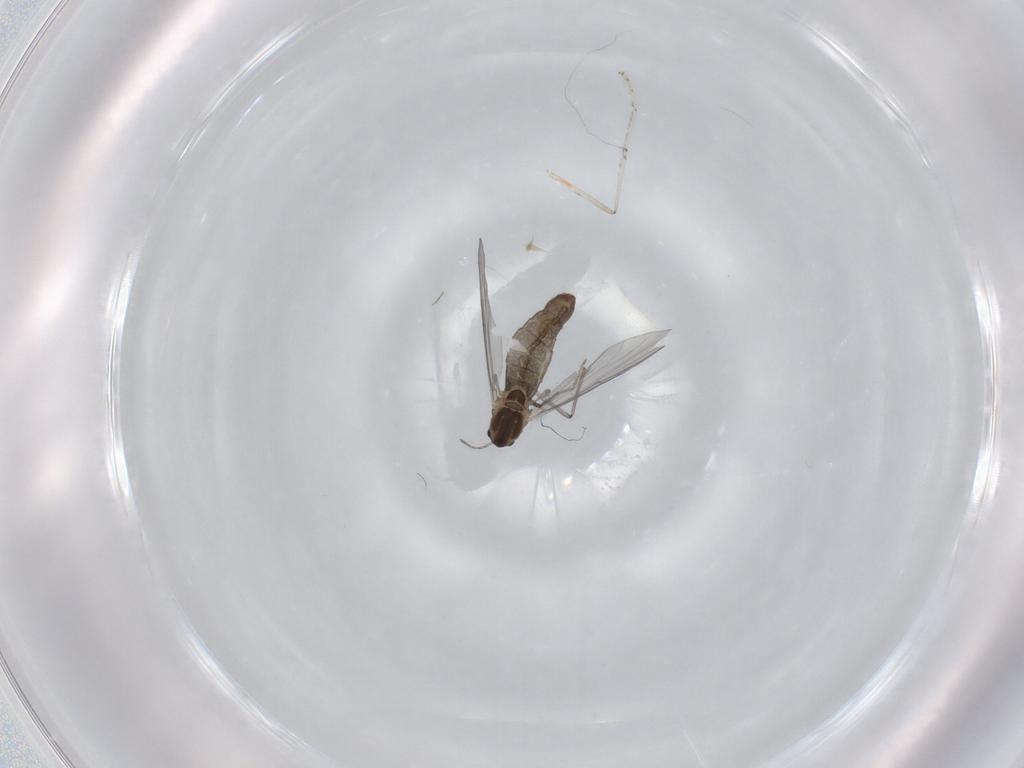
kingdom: Animalia
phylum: Arthropoda
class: Insecta
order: Diptera
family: Chironomidae
